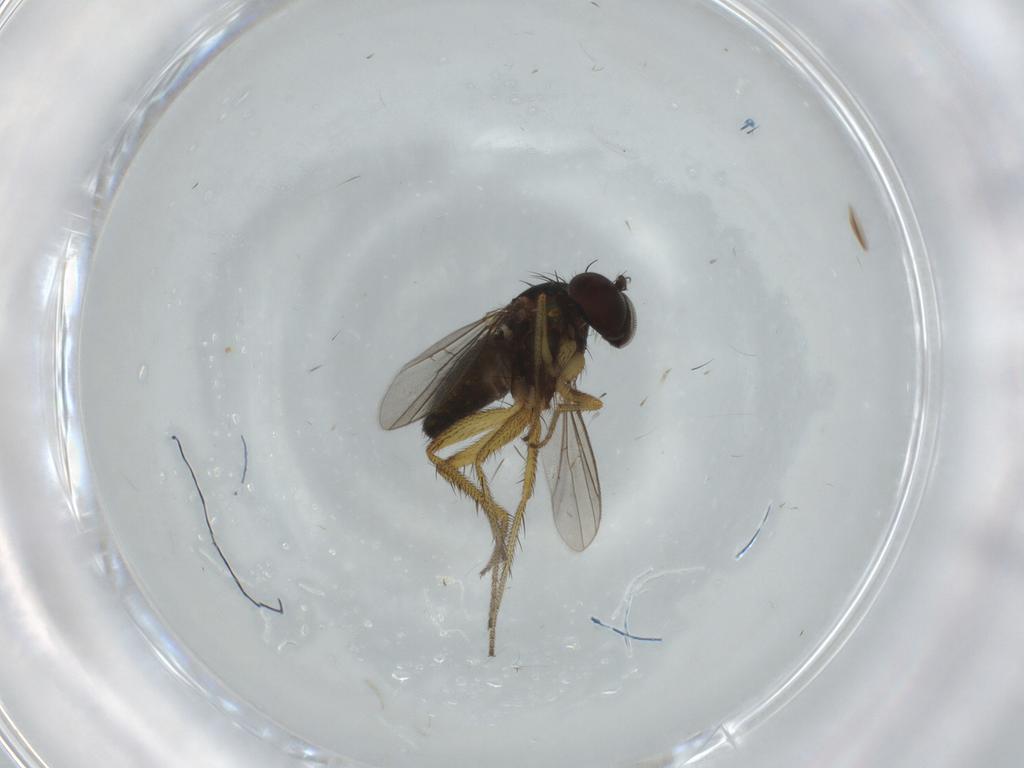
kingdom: Animalia
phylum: Arthropoda
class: Insecta
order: Diptera
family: Dolichopodidae
